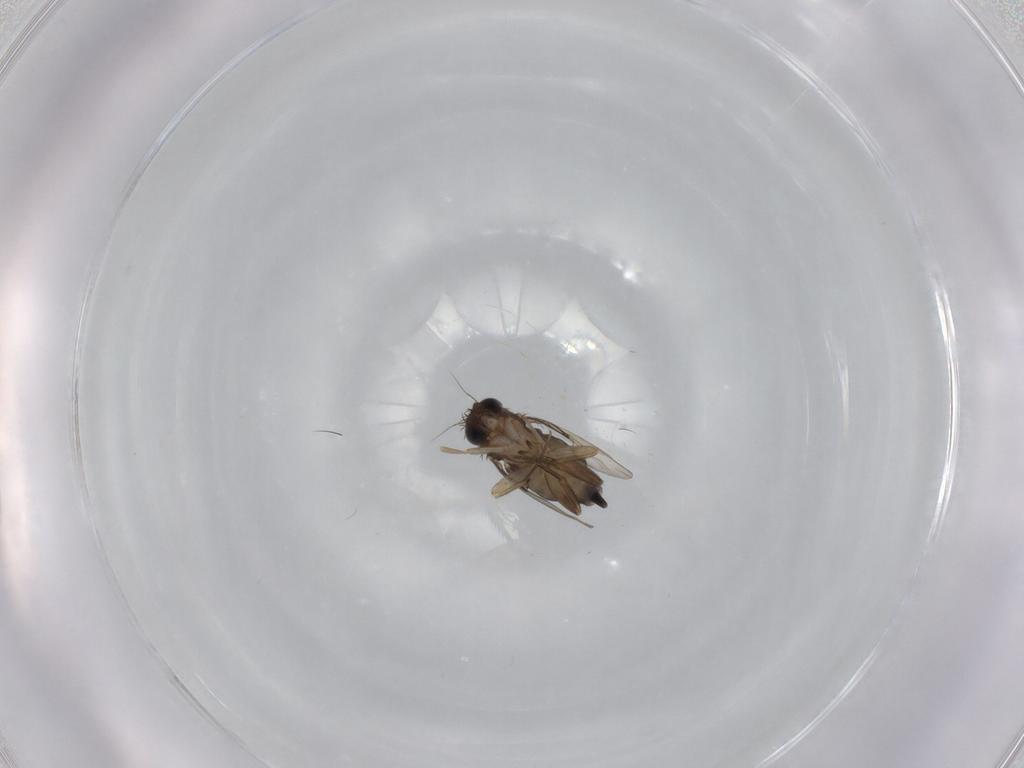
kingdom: Animalia
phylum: Arthropoda
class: Insecta
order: Diptera
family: Phoridae
